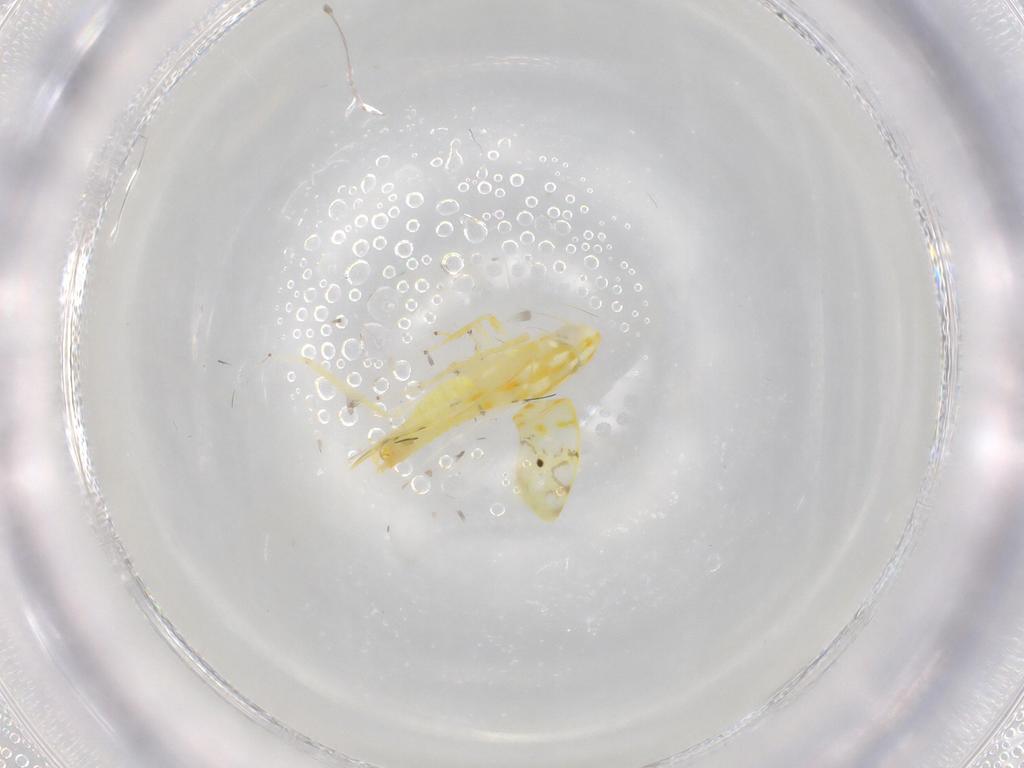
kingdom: Animalia
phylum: Arthropoda
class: Insecta
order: Hemiptera
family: Cicadellidae
